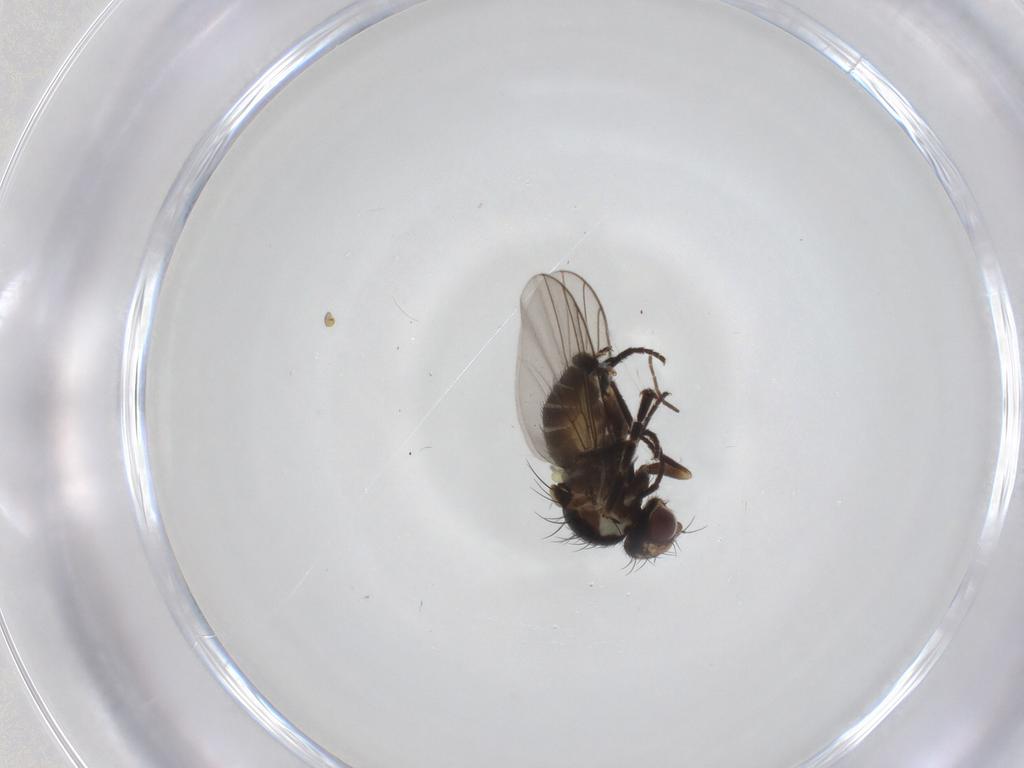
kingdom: Animalia
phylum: Arthropoda
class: Insecta
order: Diptera
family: Agromyzidae
